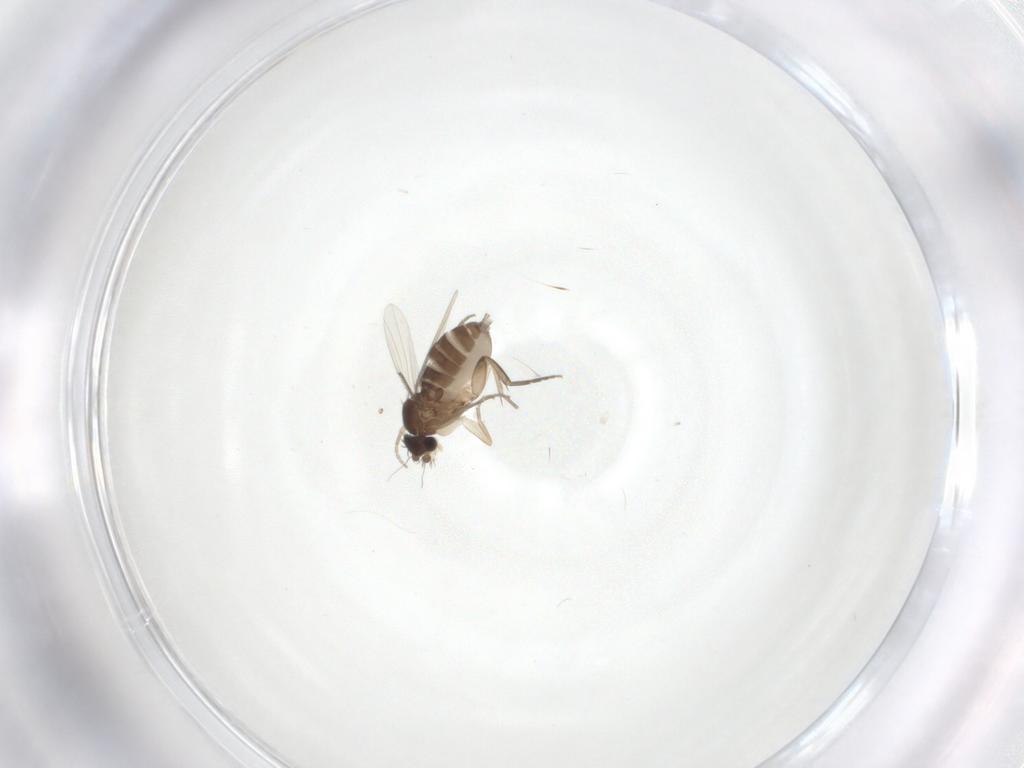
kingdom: Animalia
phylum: Arthropoda
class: Insecta
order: Diptera
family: Phoridae
